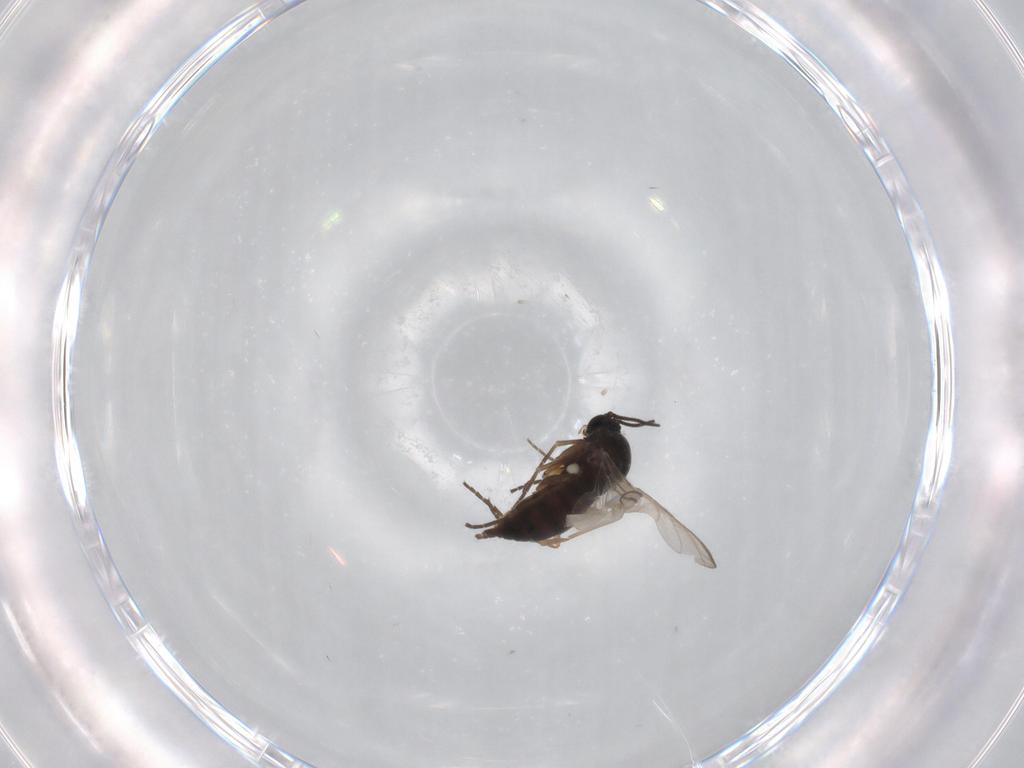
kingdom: Animalia
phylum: Arthropoda
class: Insecta
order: Diptera
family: Sciaridae
